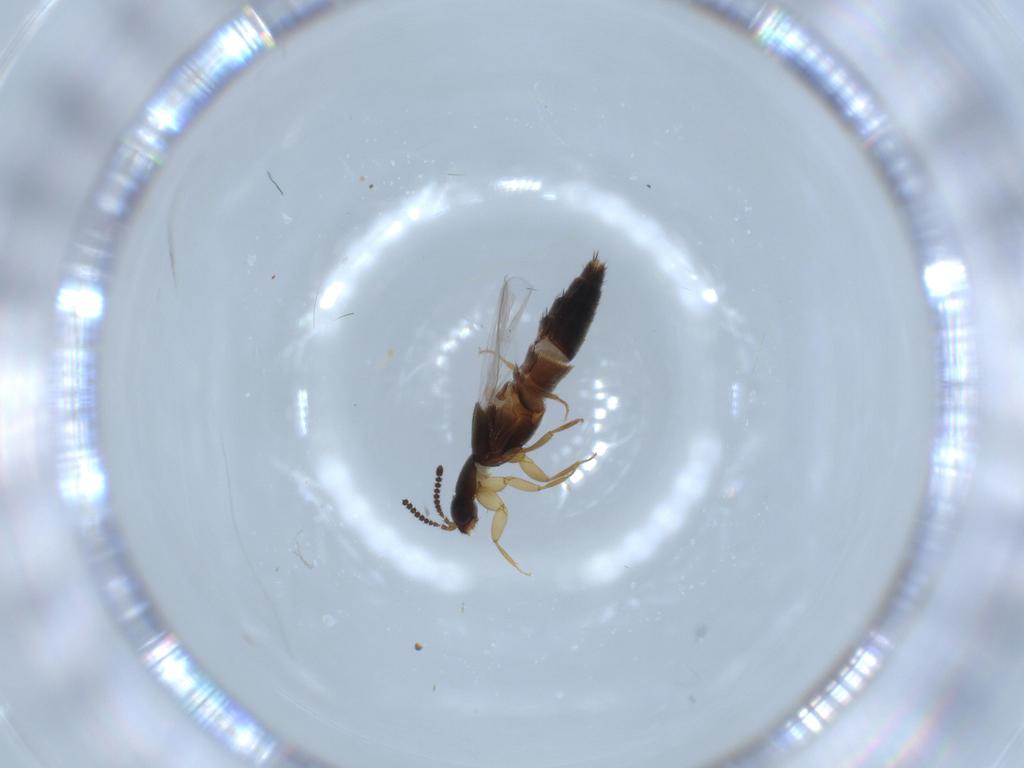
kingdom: Animalia
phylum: Arthropoda
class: Insecta
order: Coleoptera
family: Staphylinidae
